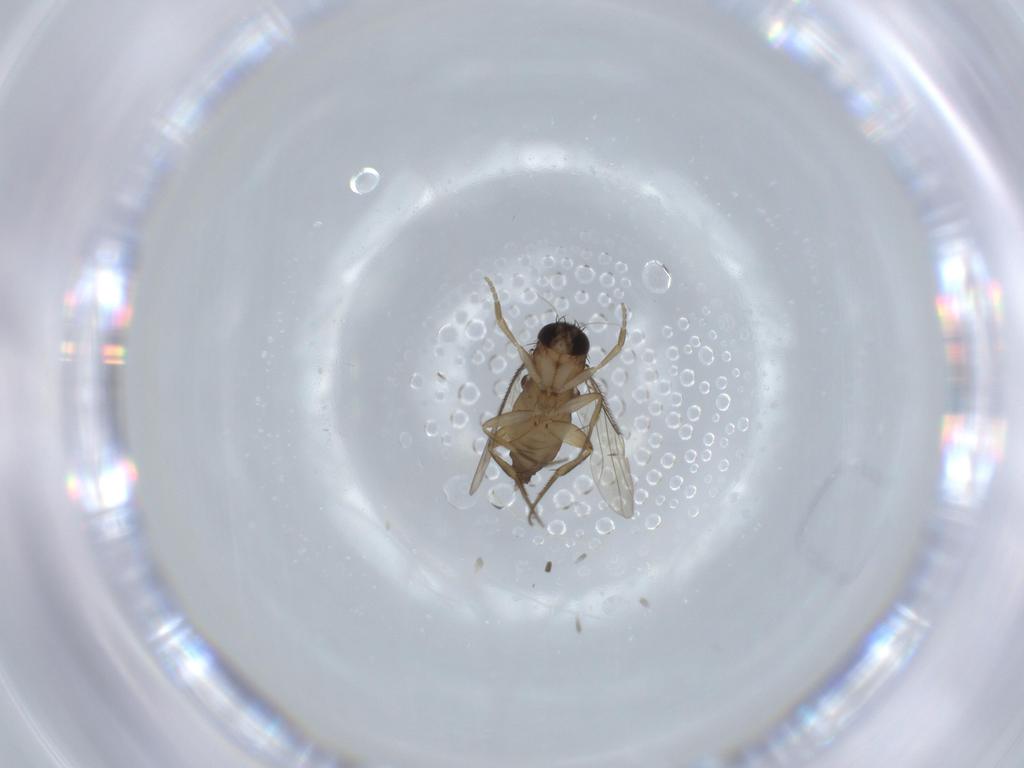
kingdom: Animalia
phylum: Arthropoda
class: Insecta
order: Diptera
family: Phoridae
